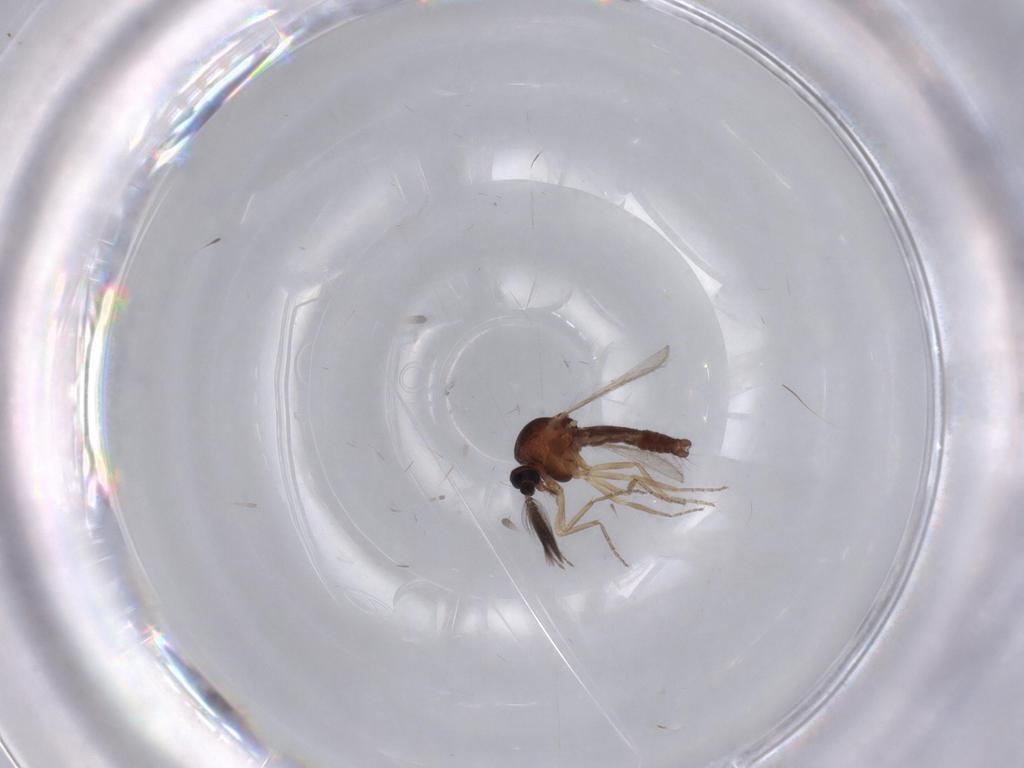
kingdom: Animalia
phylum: Arthropoda
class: Insecta
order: Diptera
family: Ceratopogonidae
